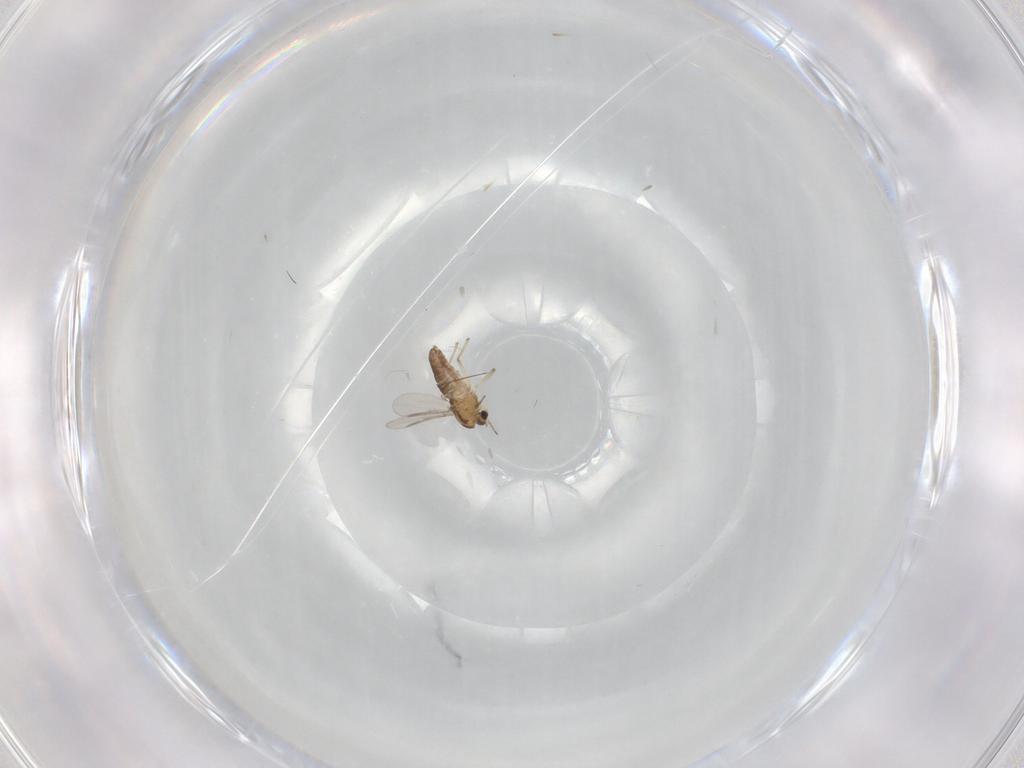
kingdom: Animalia
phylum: Arthropoda
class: Insecta
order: Diptera
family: Chironomidae
